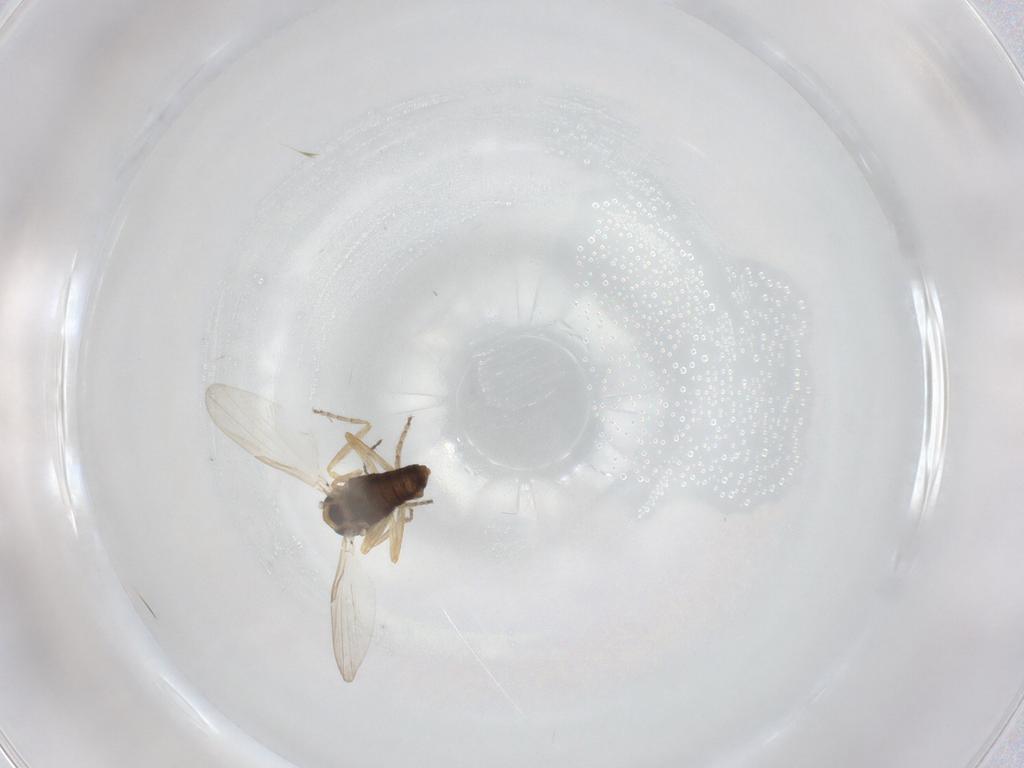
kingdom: Animalia
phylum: Arthropoda
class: Insecta
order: Diptera
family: Ceratopogonidae
